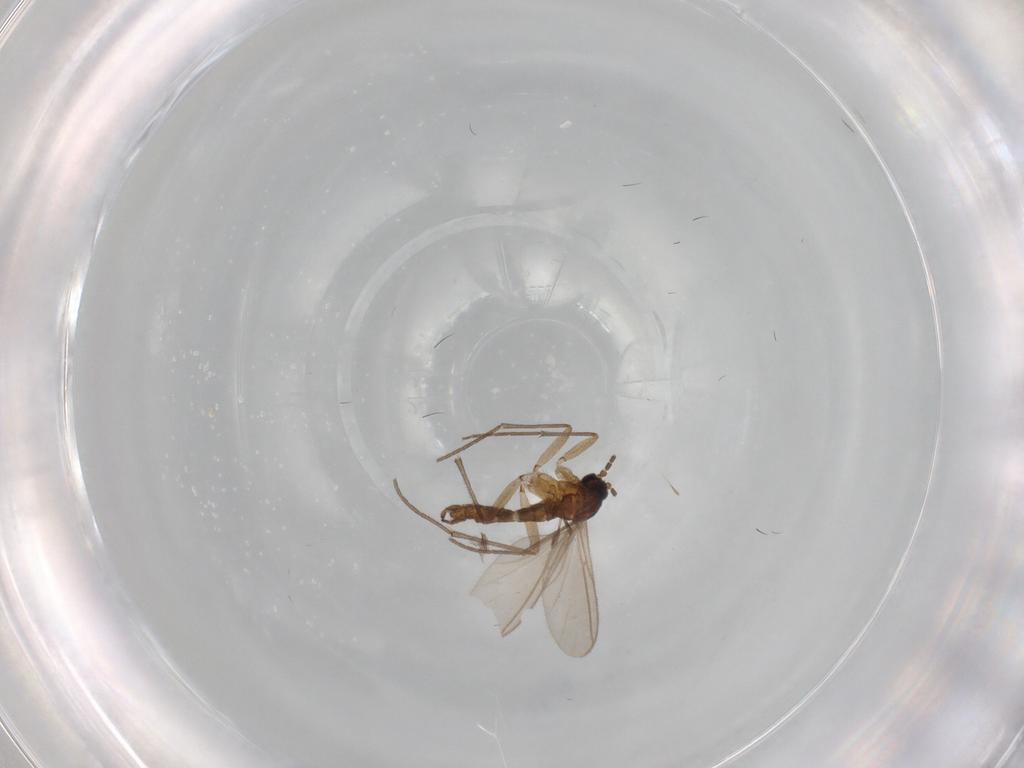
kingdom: Animalia
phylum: Arthropoda
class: Insecta
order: Diptera
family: Sciaridae
